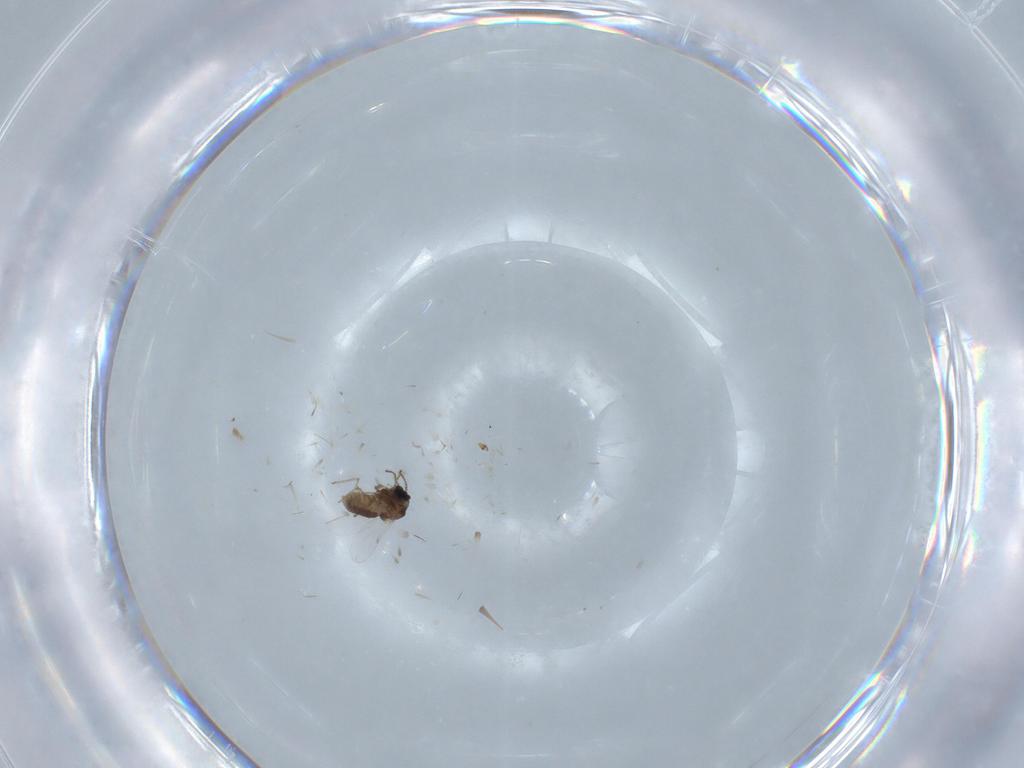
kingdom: Animalia
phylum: Arthropoda
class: Insecta
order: Diptera
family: Ceratopogonidae
